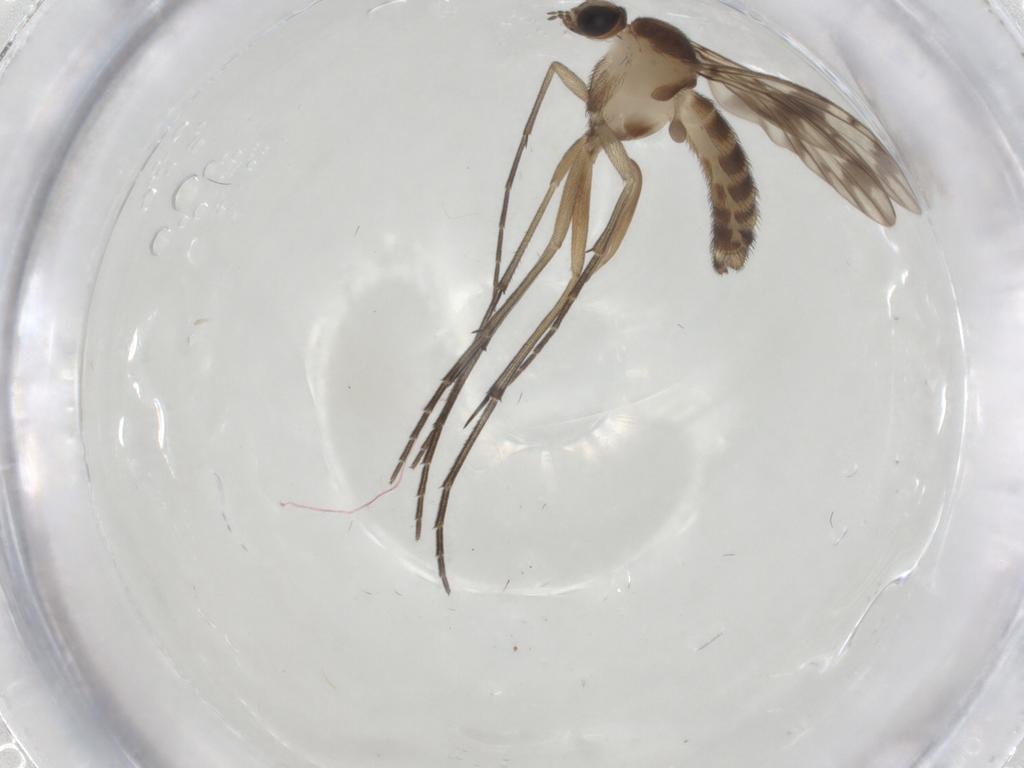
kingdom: Animalia
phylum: Arthropoda
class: Insecta
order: Diptera
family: Keroplatidae
